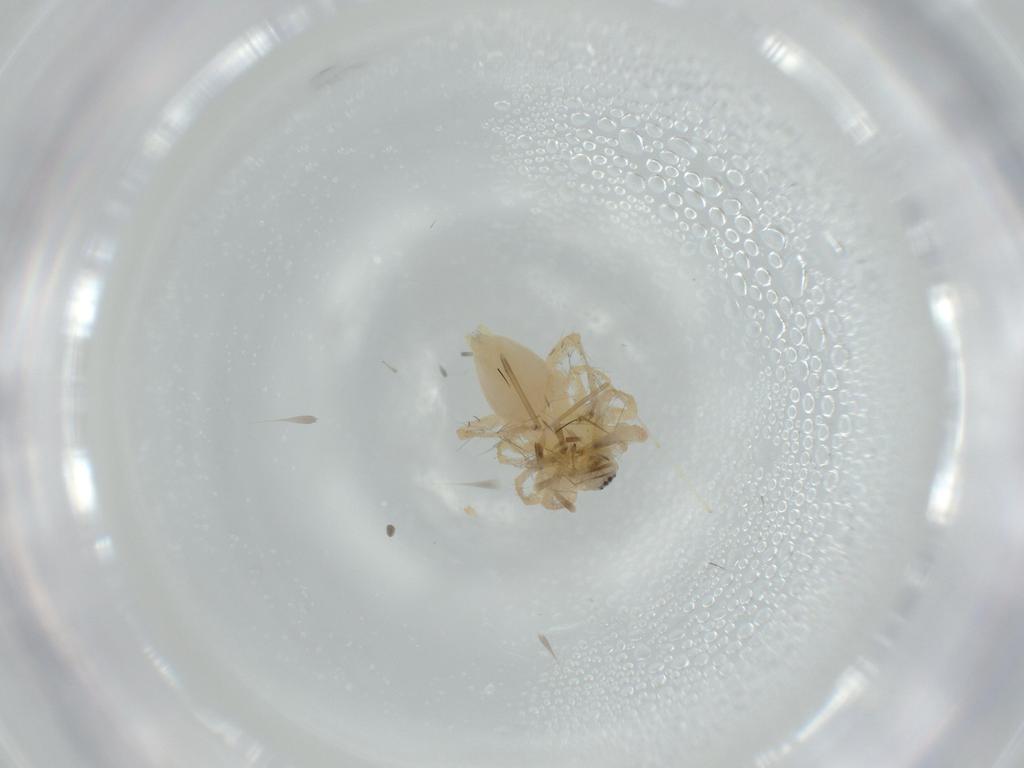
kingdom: Animalia
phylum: Arthropoda
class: Arachnida
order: Araneae
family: Anyphaenidae
